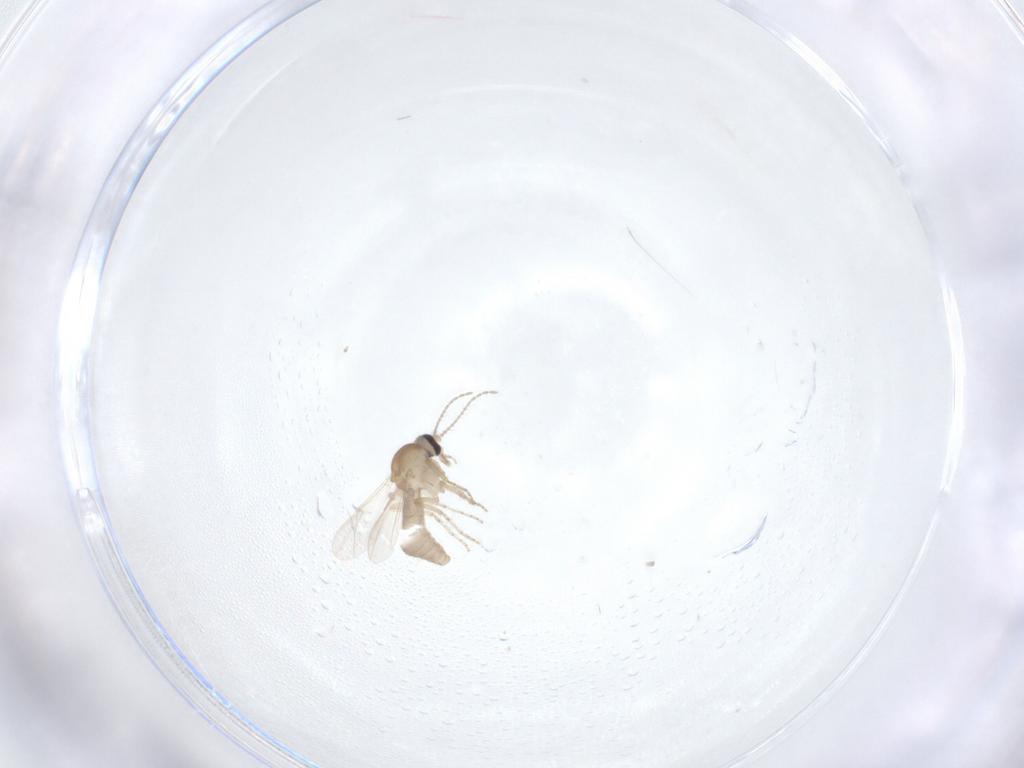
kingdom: Animalia
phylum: Arthropoda
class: Insecta
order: Diptera
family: Ceratopogonidae
